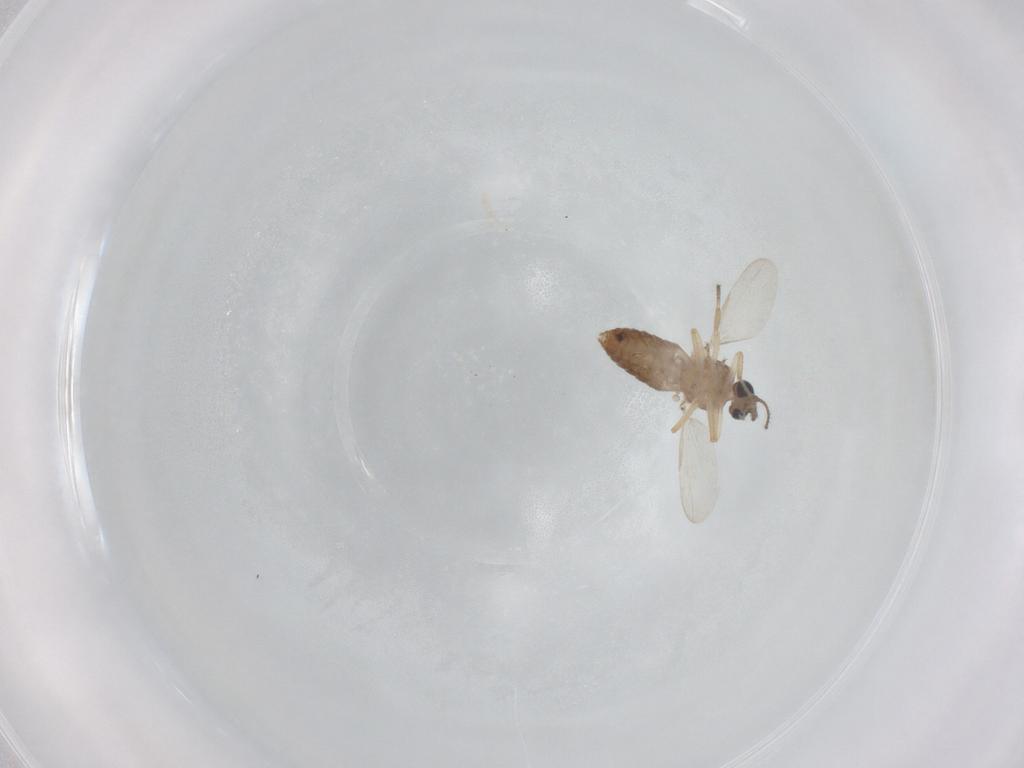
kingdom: Animalia
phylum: Arthropoda
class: Insecta
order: Diptera
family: Ceratopogonidae
